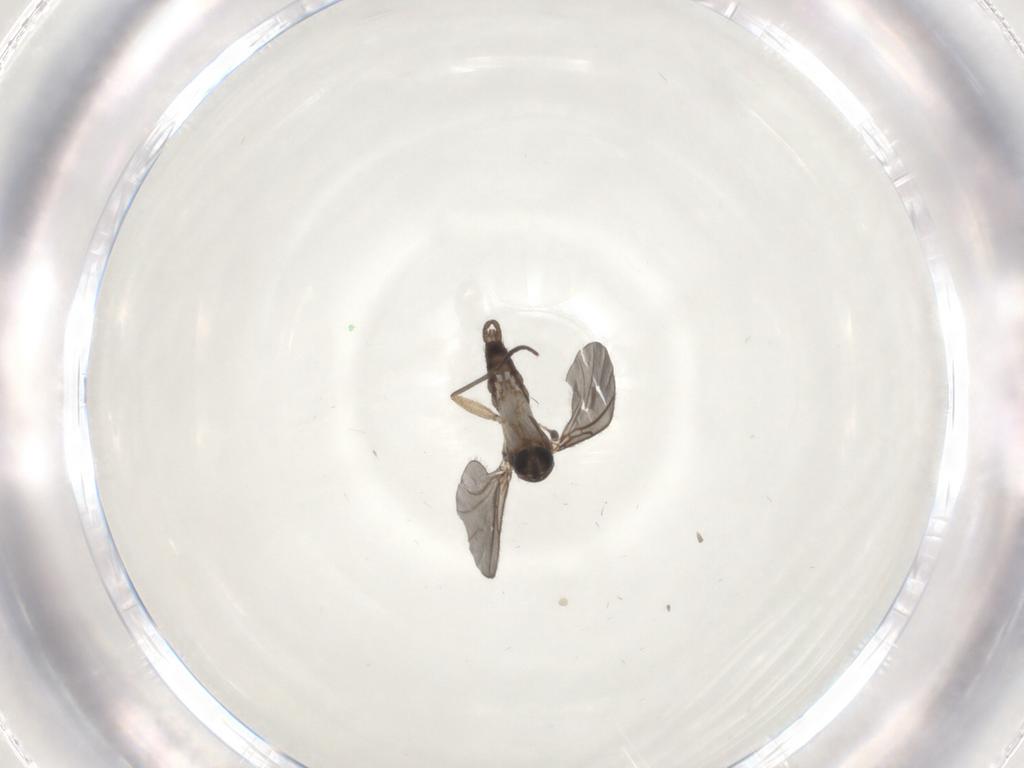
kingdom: Animalia
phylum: Arthropoda
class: Insecta
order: Diptera
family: Sciaridae
